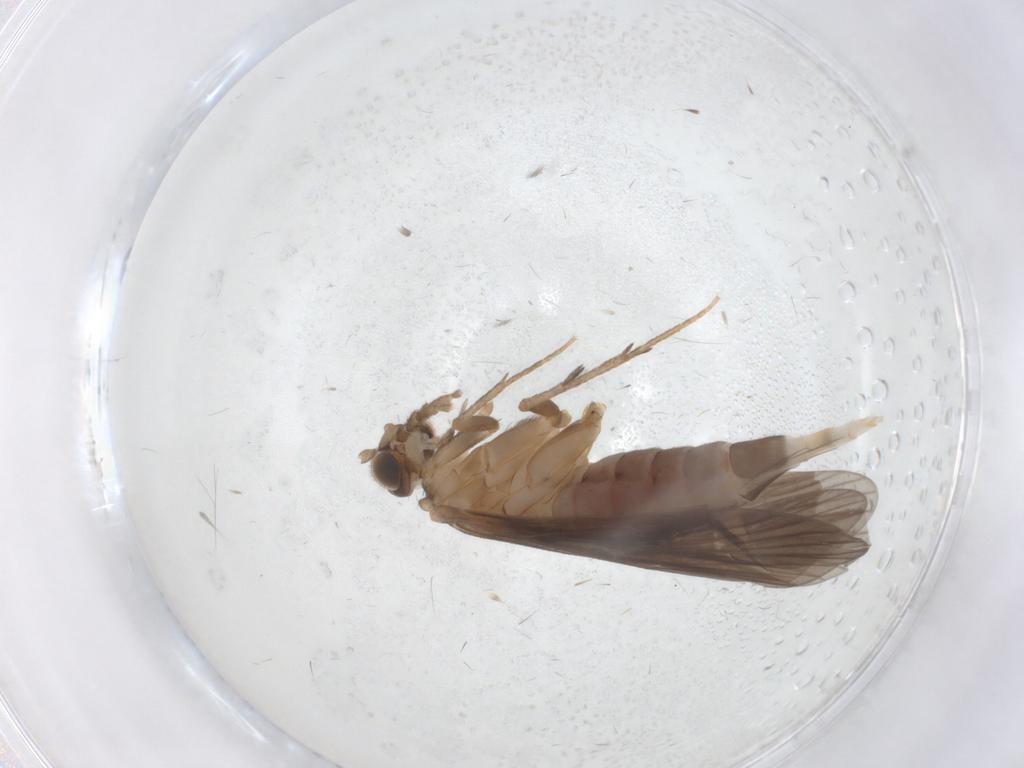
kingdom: Animalia
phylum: Arthropoda
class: Insecta
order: Trichoptera
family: Philopotamidae
